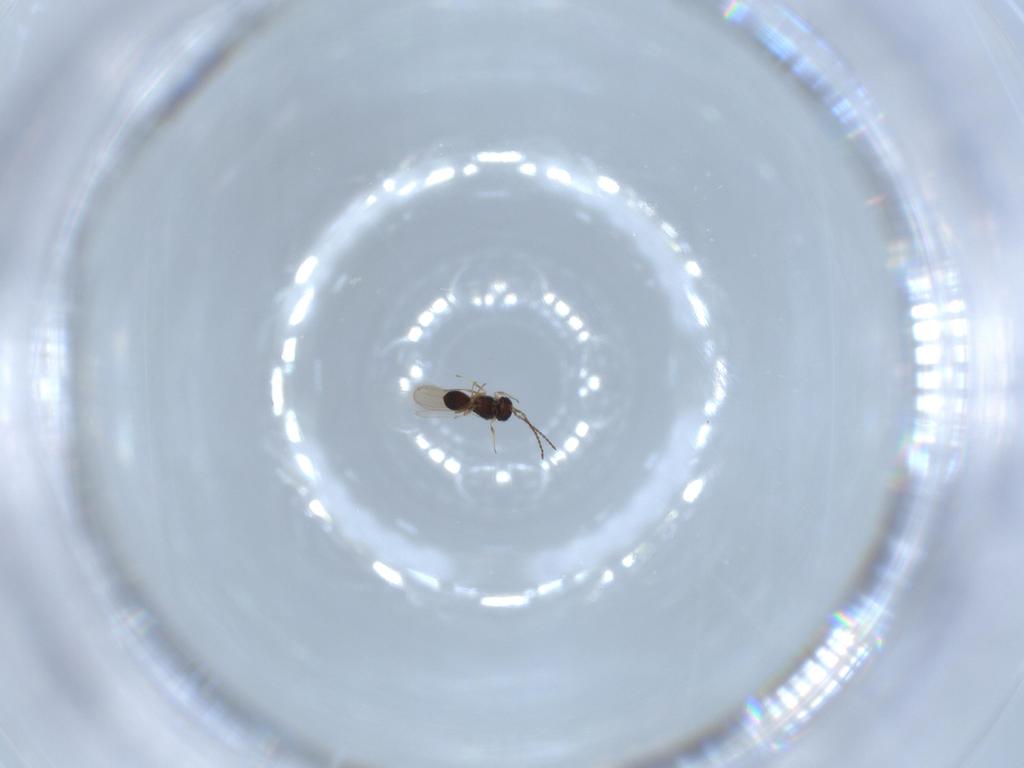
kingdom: Animalia
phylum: Arthropoda
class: Insecta
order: Hymenoptera
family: Scelionidae
